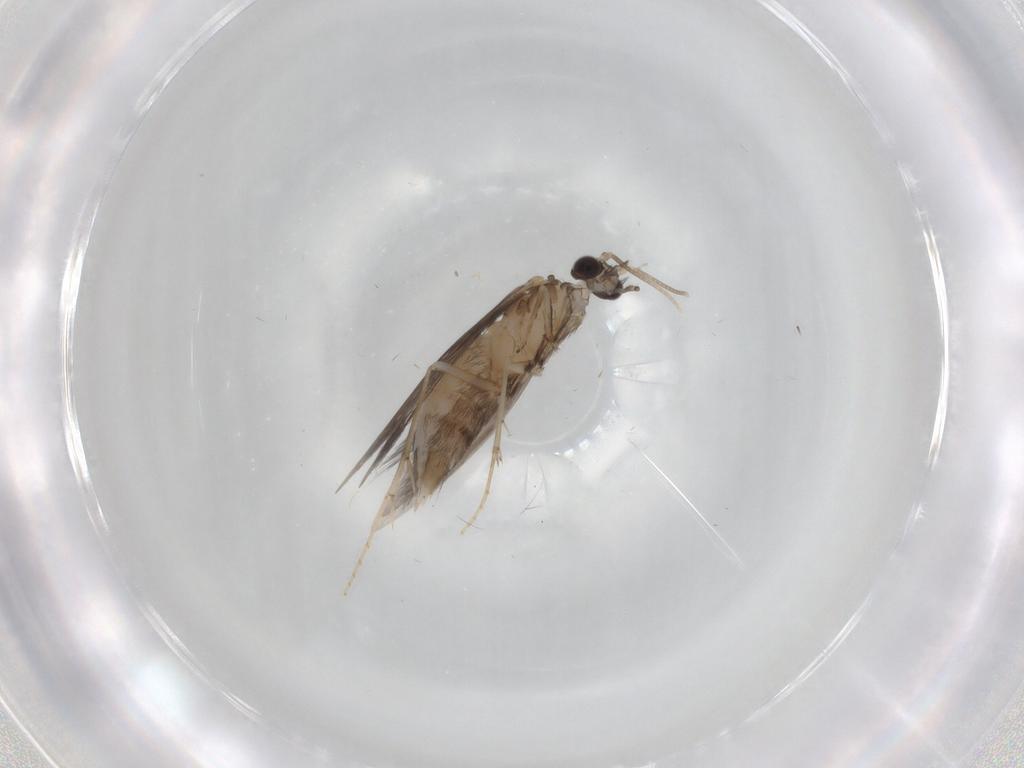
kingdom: Animalia
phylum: Arthropoda
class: Insecta
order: Trichoptera
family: Hydroptilidae
